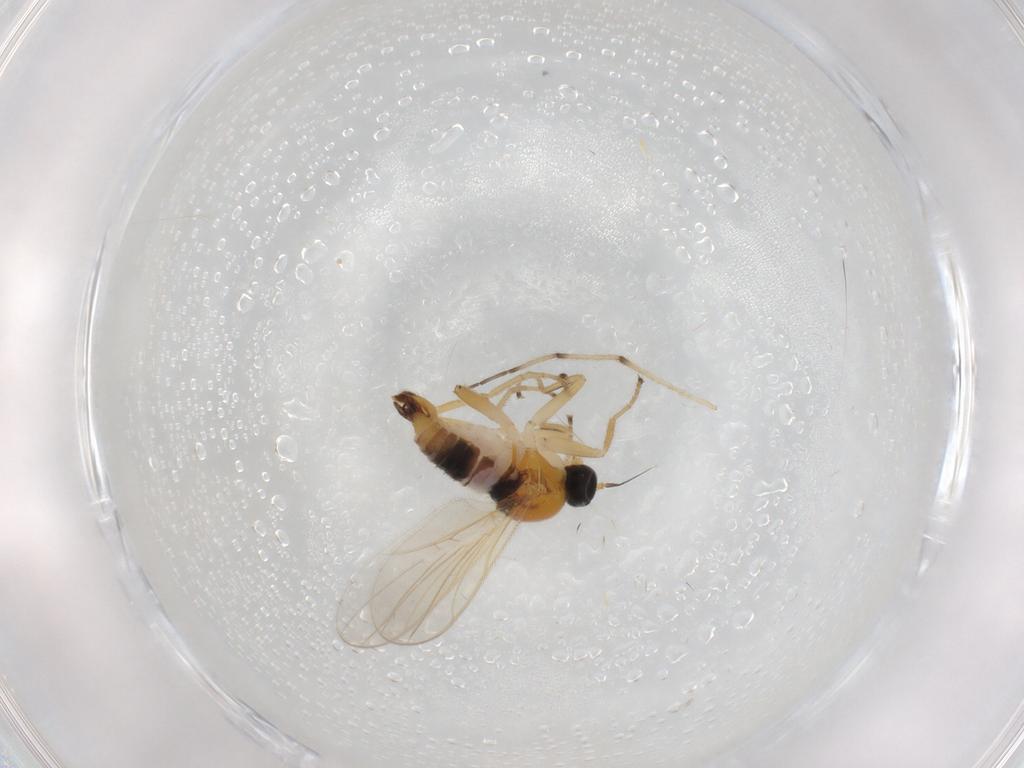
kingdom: Animalia
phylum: Arthropoda
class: Insecta
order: Diptera
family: Hybotidae
